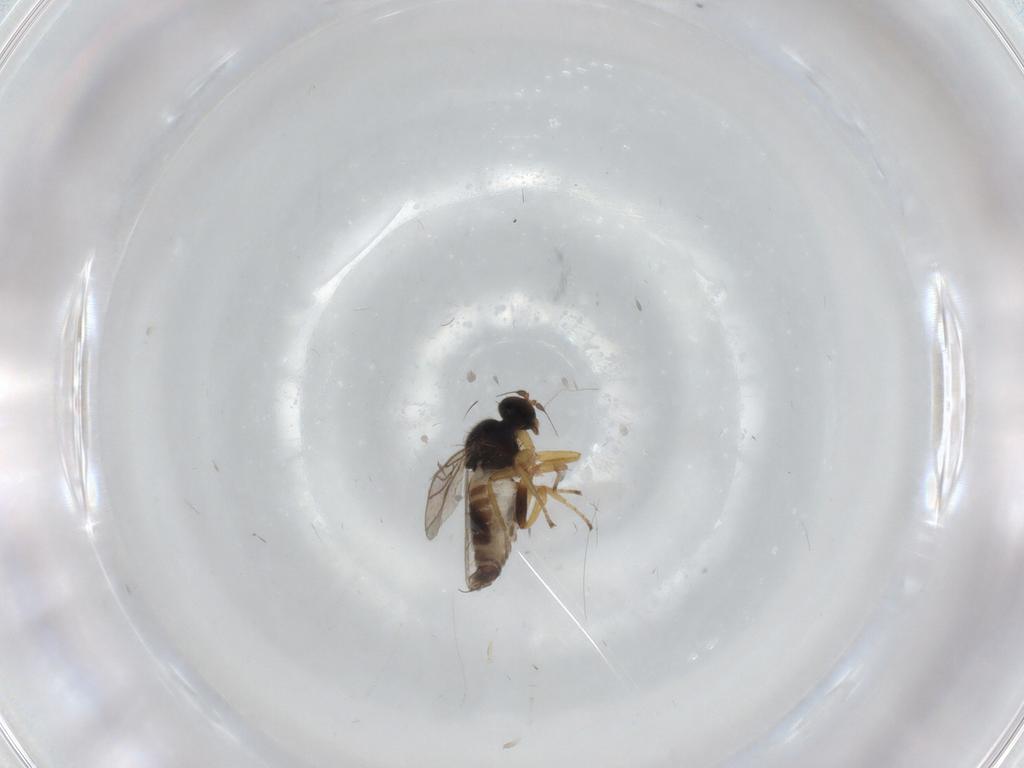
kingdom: Animalia
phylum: Arthropoda
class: Insecta
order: Diptera
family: Hybotidae
